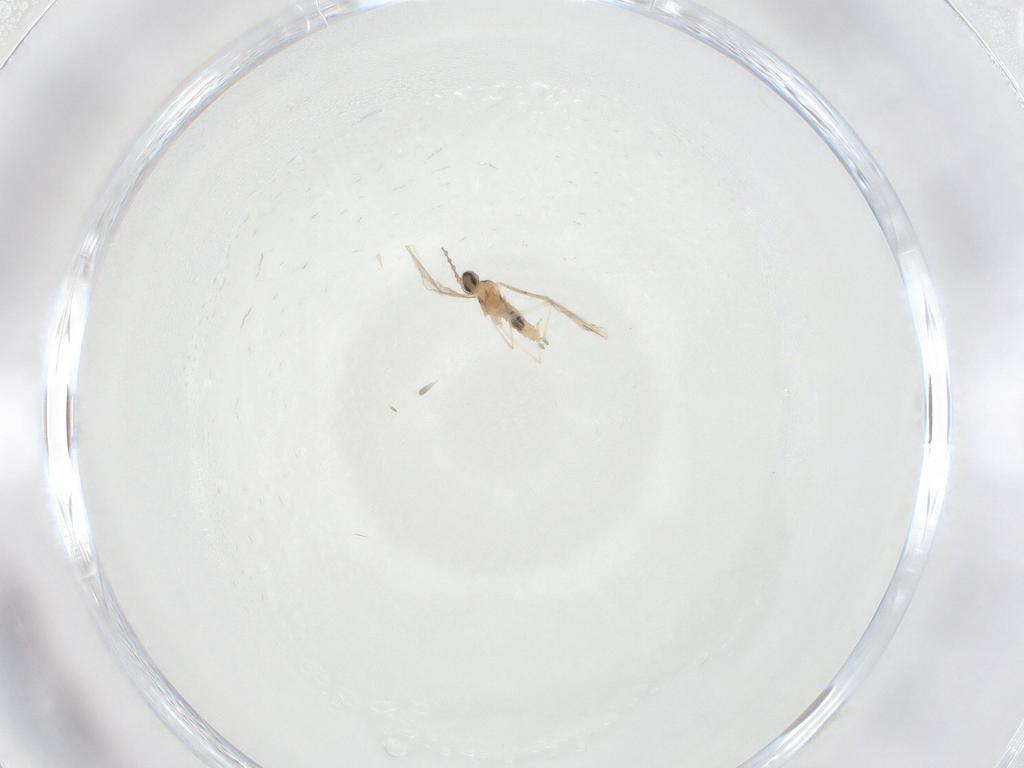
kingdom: Animalia
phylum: Arthropoda
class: Insecta
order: Diptera
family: Cecidomyiidae
